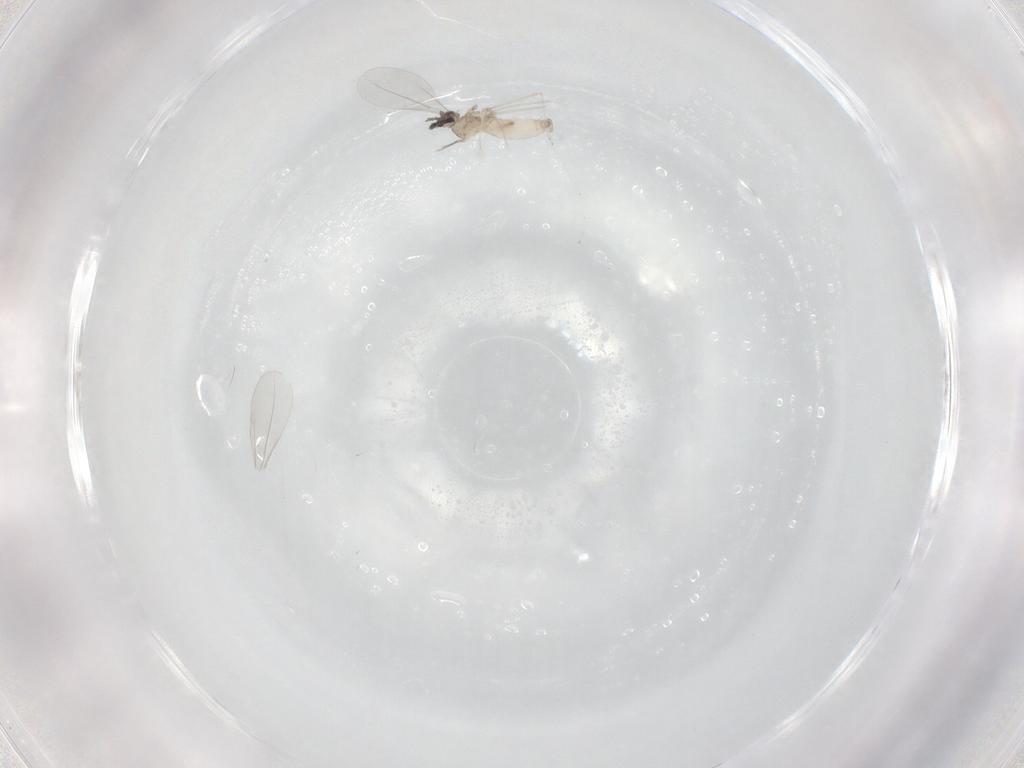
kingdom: Animalia
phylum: Arthropoda
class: Insecta
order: Diptera
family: Cecidomyiidae
